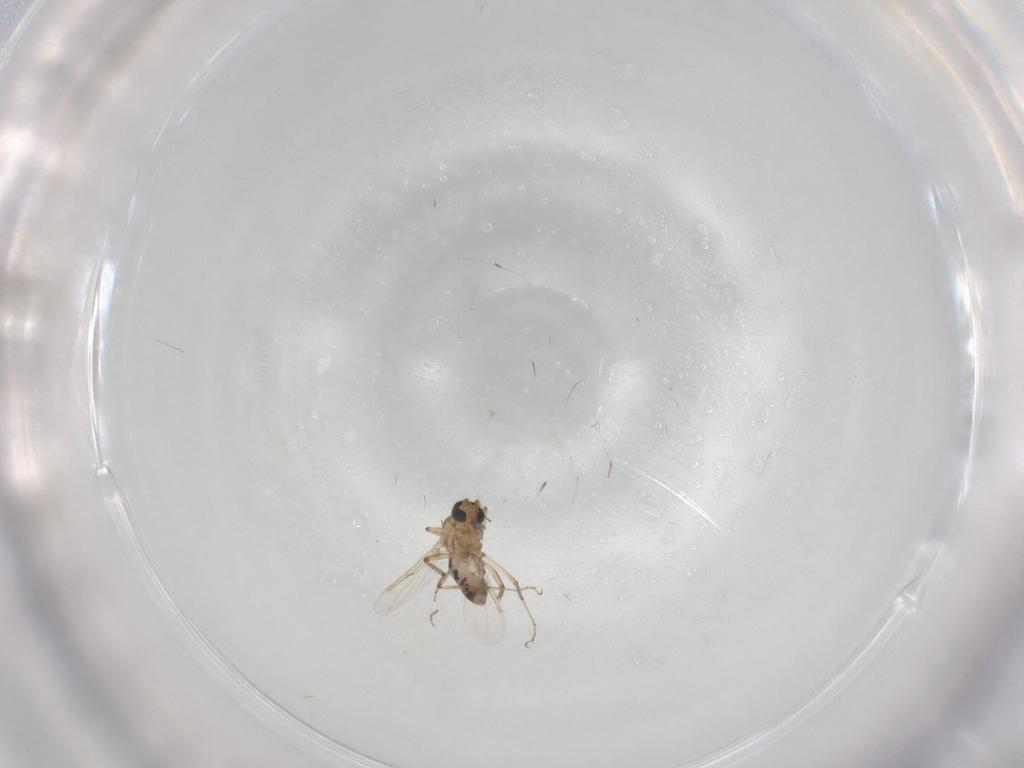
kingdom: Animalia
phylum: Arthropoda
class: Insecta
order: Diptera
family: Ceratopogonidae
